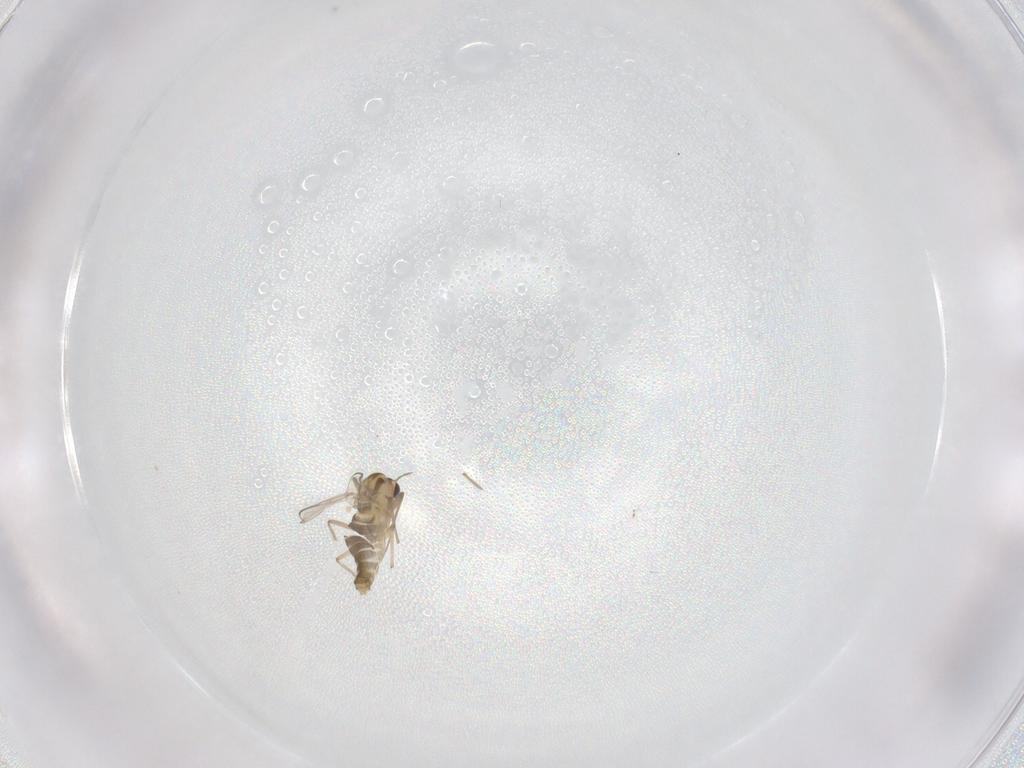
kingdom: Animalia
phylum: Arthropoda
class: Insecta
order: Diptera
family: Chironomidae
